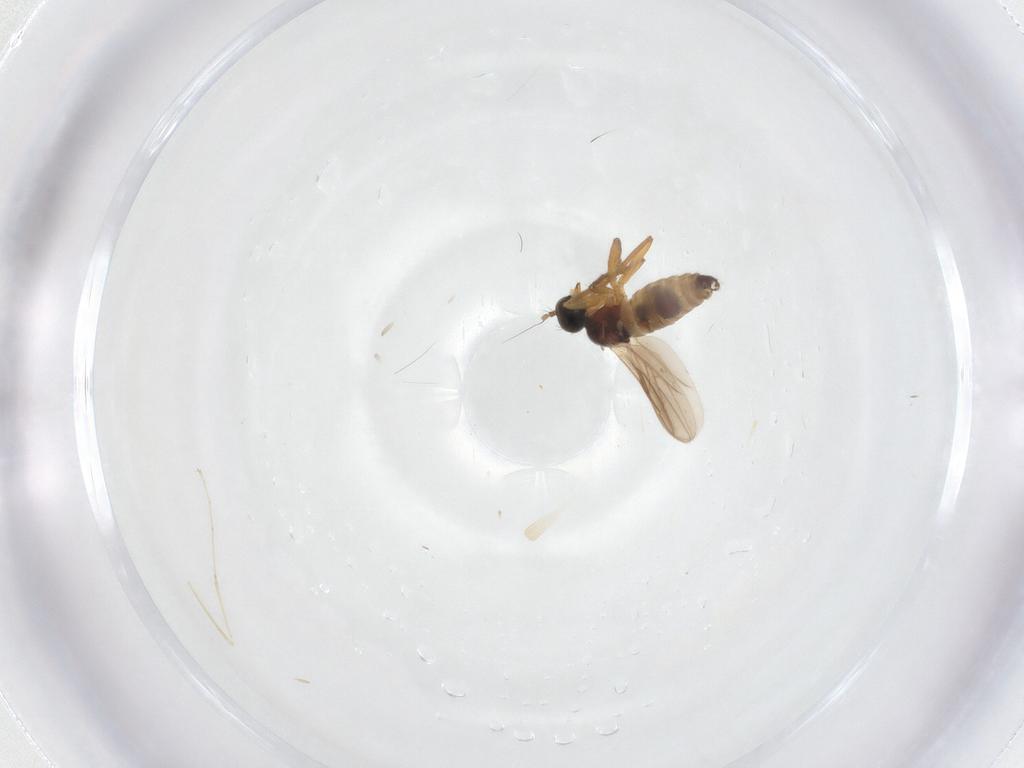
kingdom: Animalia
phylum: Arthropoda
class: Insecta
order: Diptera
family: Hybotidae
